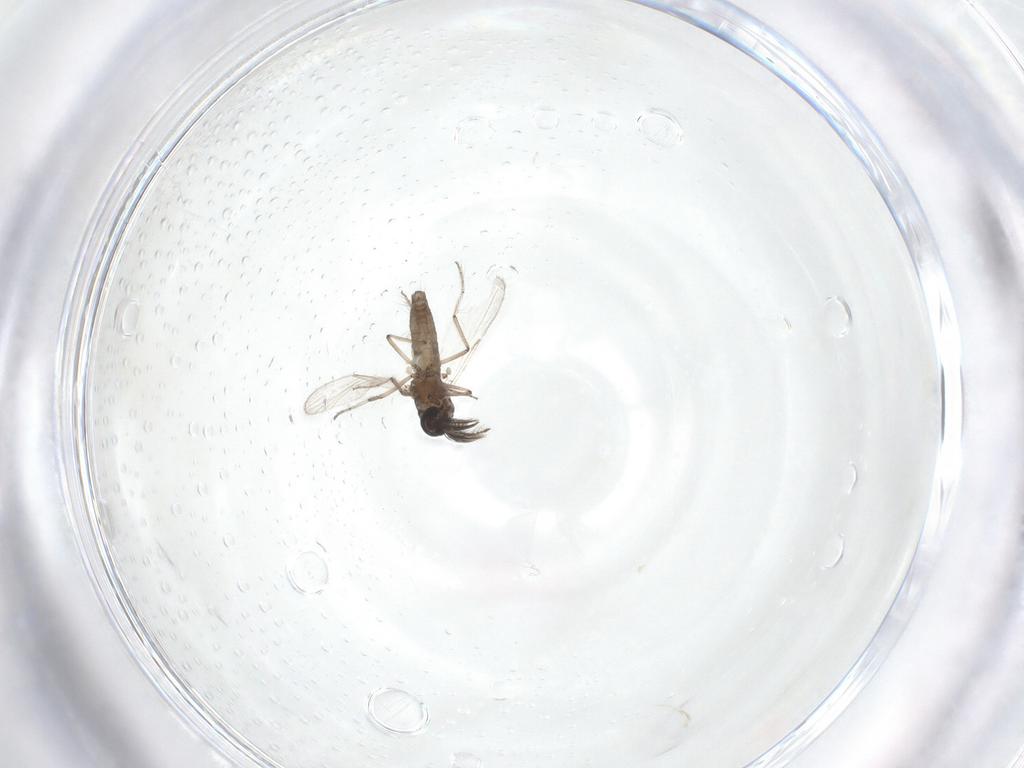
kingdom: Animalia
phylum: Arthropoda
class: Insecta
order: Diptera
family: Ceratopogonidae
